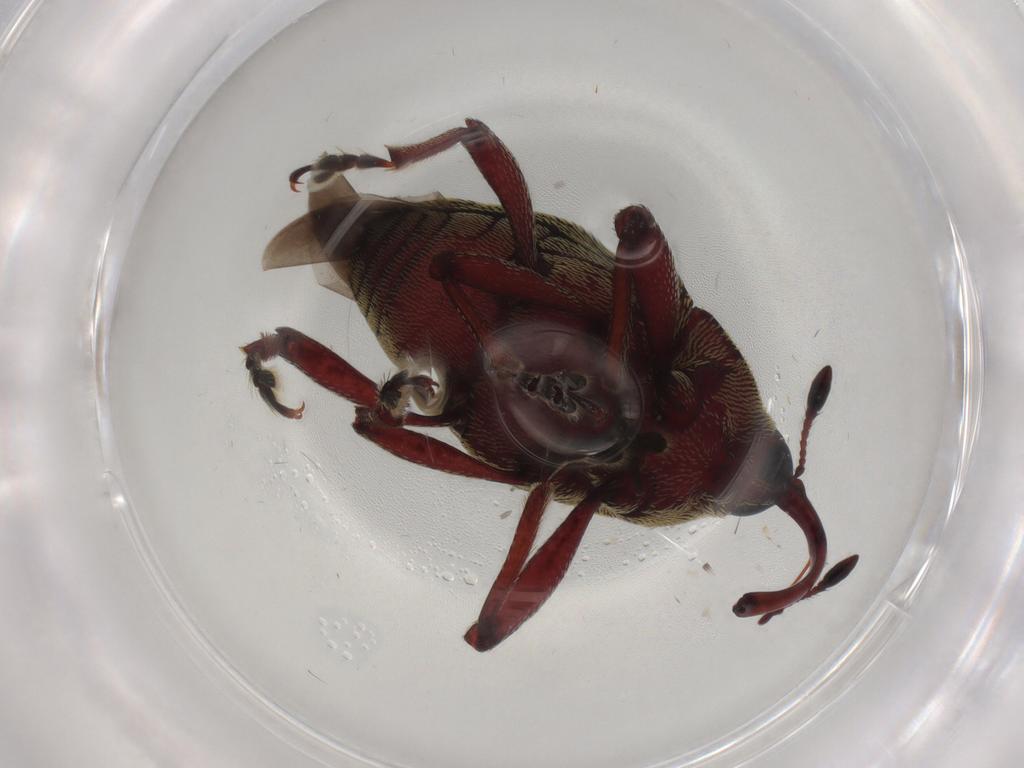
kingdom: Animalia
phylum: Arthropoda
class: Insecta
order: Coleoptera
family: Curculionidae
